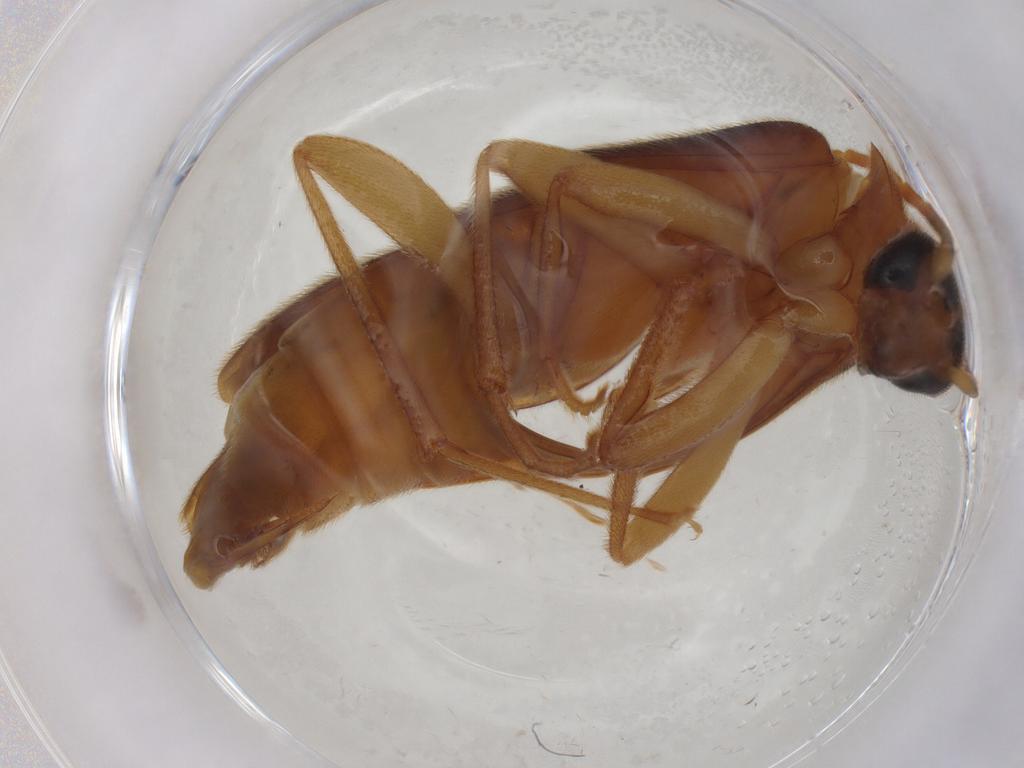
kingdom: Animalia
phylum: Arthropoda
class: Insecta
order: Coleoptera
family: Scraptiidae
